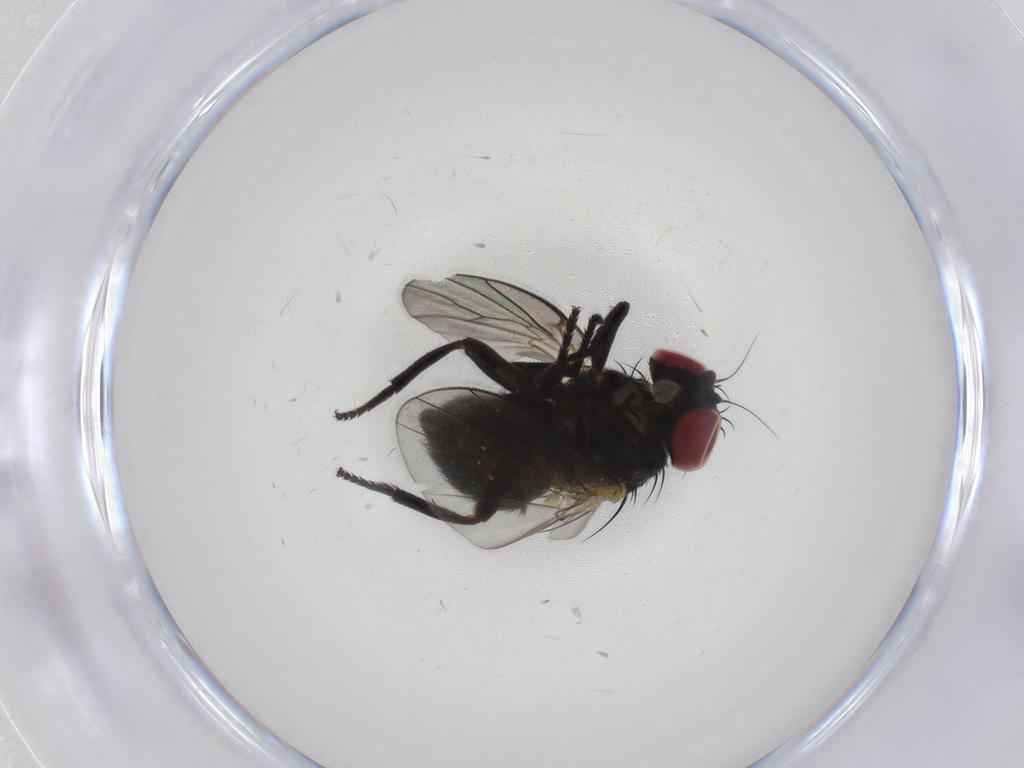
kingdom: Animalia
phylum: Arthropoda
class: Insecta
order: Diptera
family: Agromyzidae
